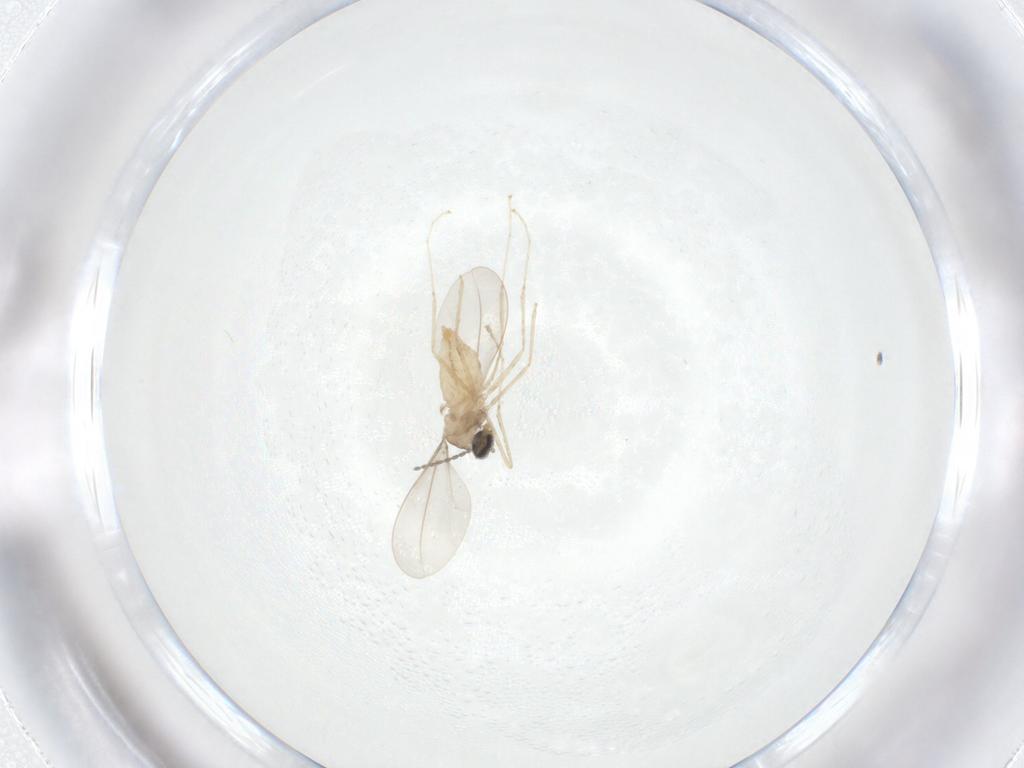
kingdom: Animalia
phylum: Arthropoda
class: Insecta
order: Diptera
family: Cecidomyiidae
